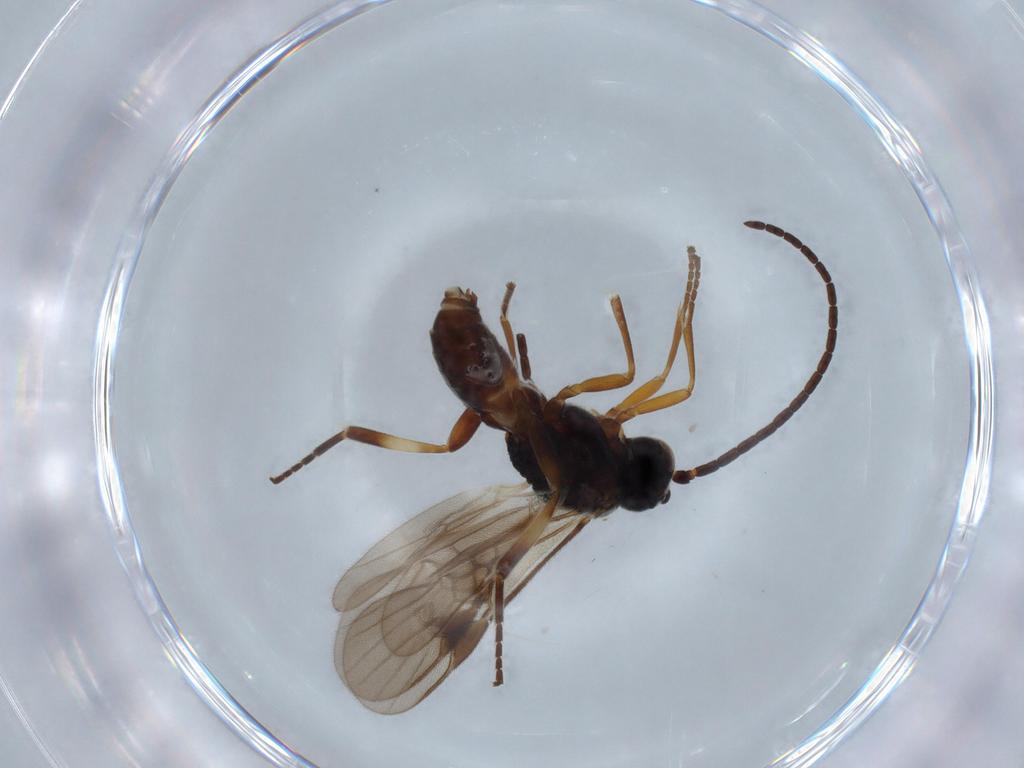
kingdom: Animalia
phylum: Arthropoda
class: Insecta
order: Hymenoptera
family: Braconidae
